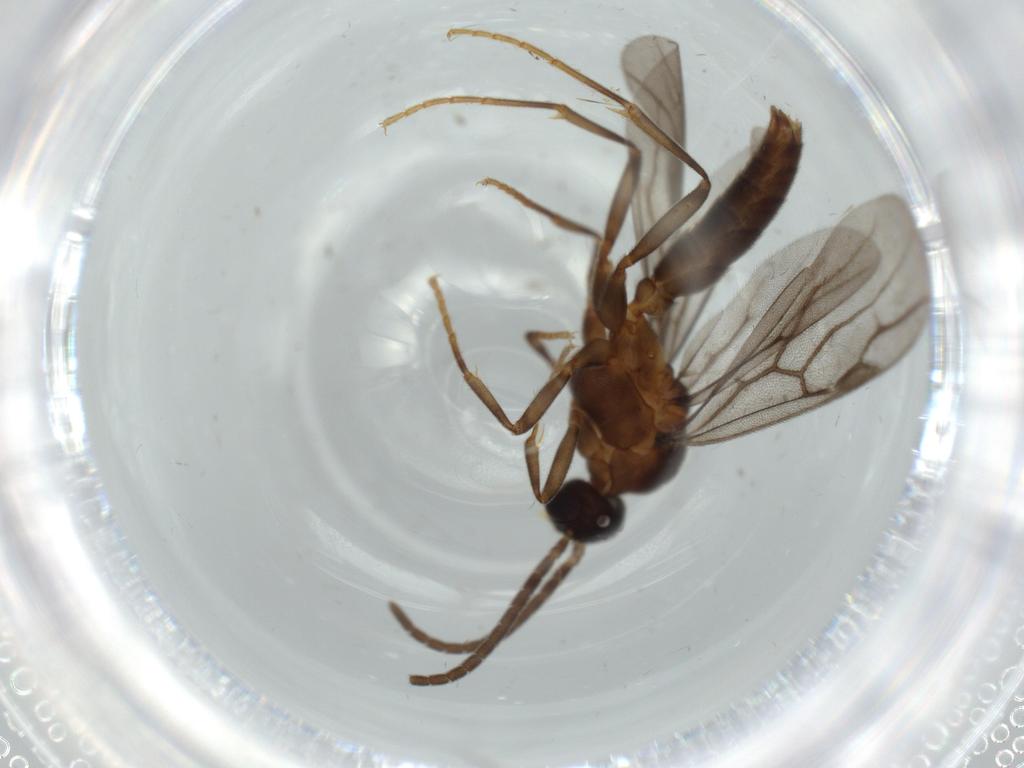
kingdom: Animalia
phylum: Arthropoda
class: Insecta
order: Hymenoptera
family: Formicidae
